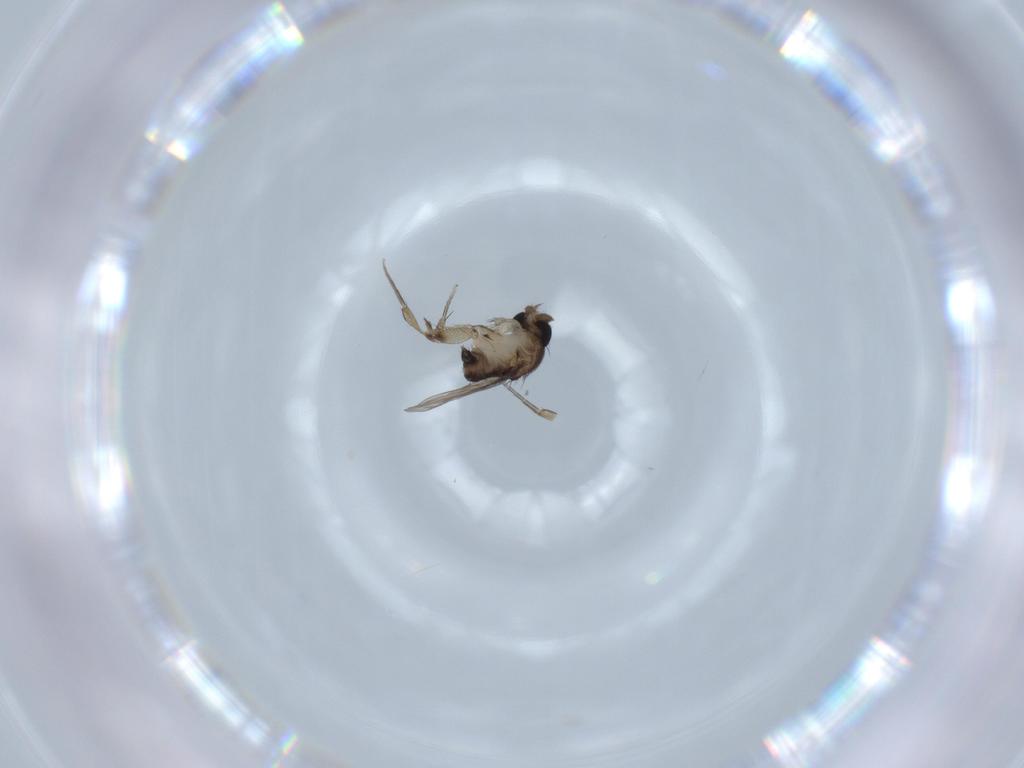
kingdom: Animalia
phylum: Arthropoda
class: Insecta
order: Diptera
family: Phoridae
